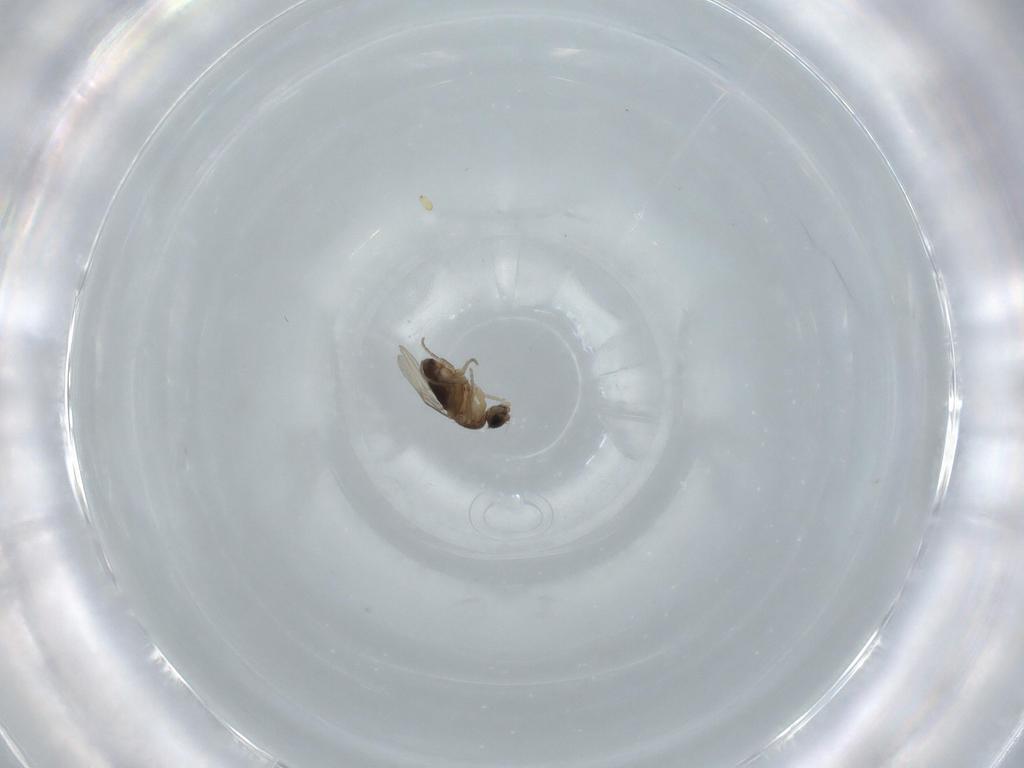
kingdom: Animalia
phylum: Arthropoda
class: Insecta
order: Diptera
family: Phoridae
